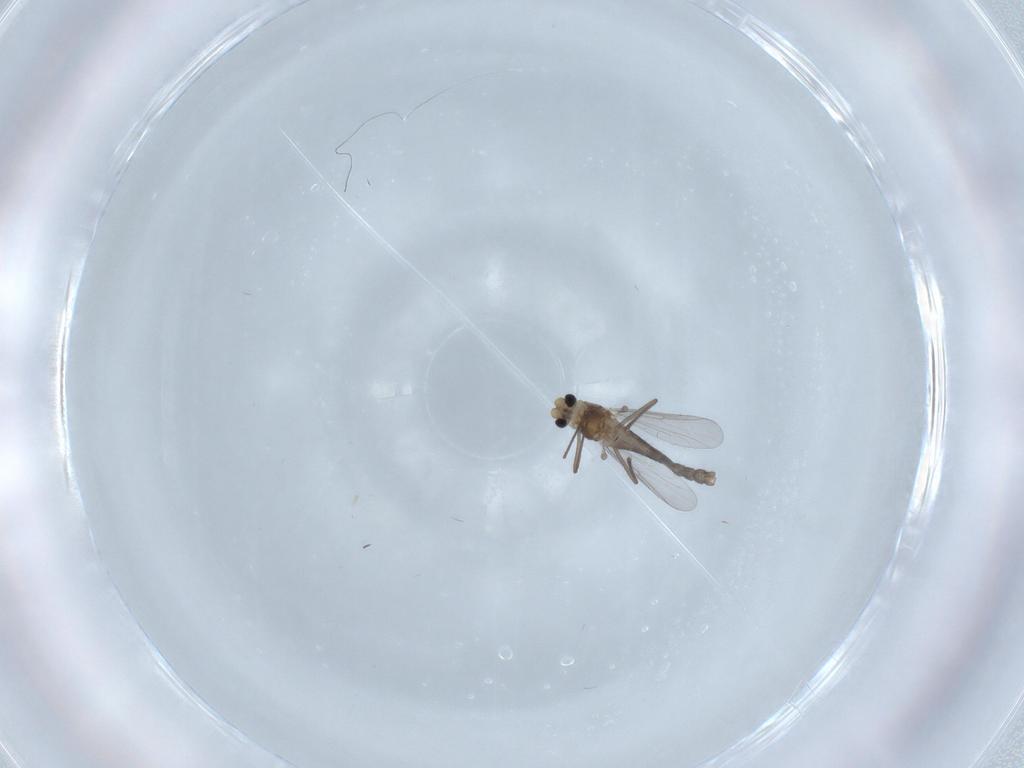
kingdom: Animalia
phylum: Arthropoda
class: Insecta
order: Diptera
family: Chironomidae
